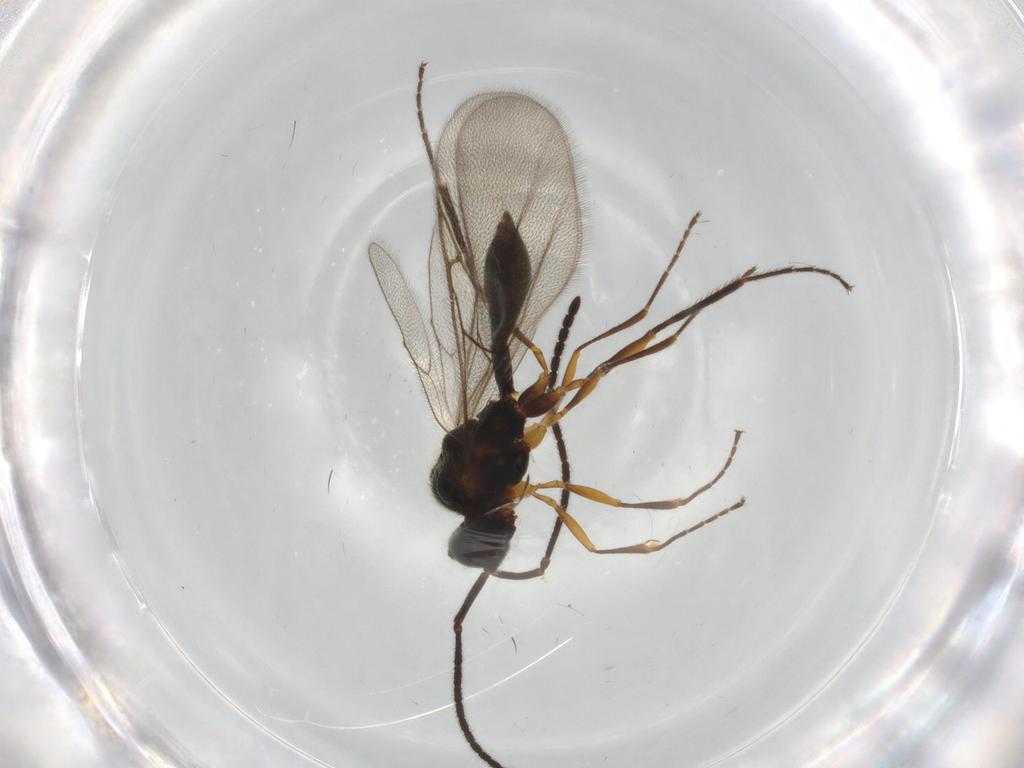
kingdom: Animalia
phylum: Arthropoda
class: Insecta
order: Hymenoptera
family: Diapriidae
